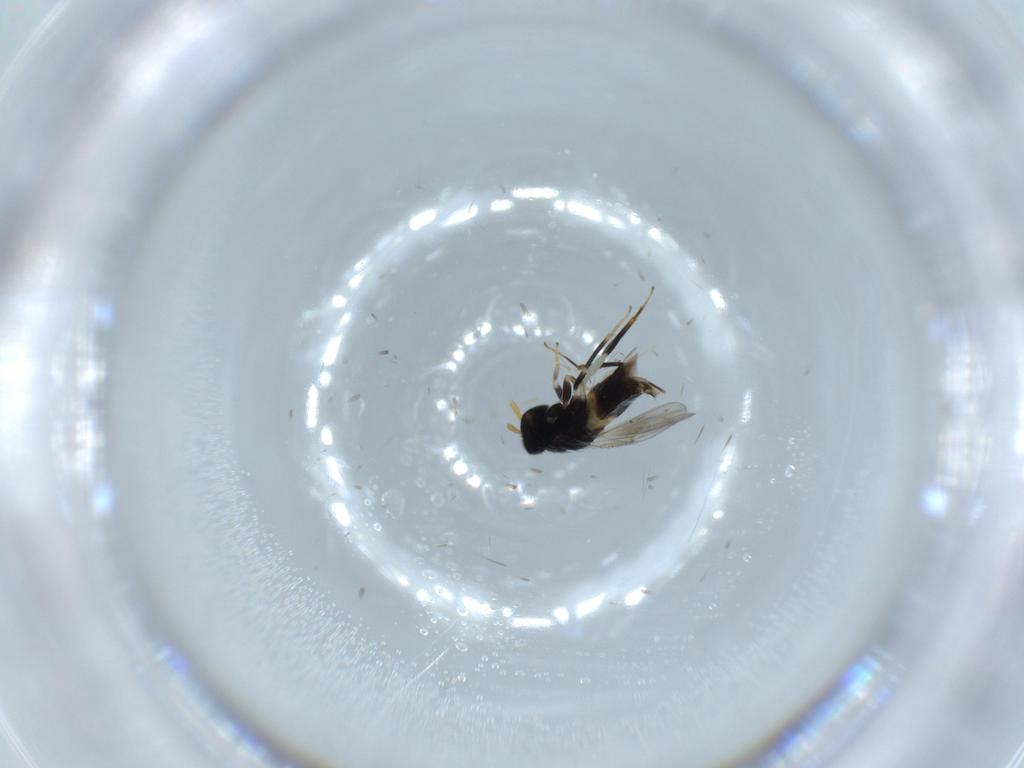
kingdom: Animalia
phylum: Arthropoda
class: Insecta
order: Hymenoptera
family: Aphelinidae
